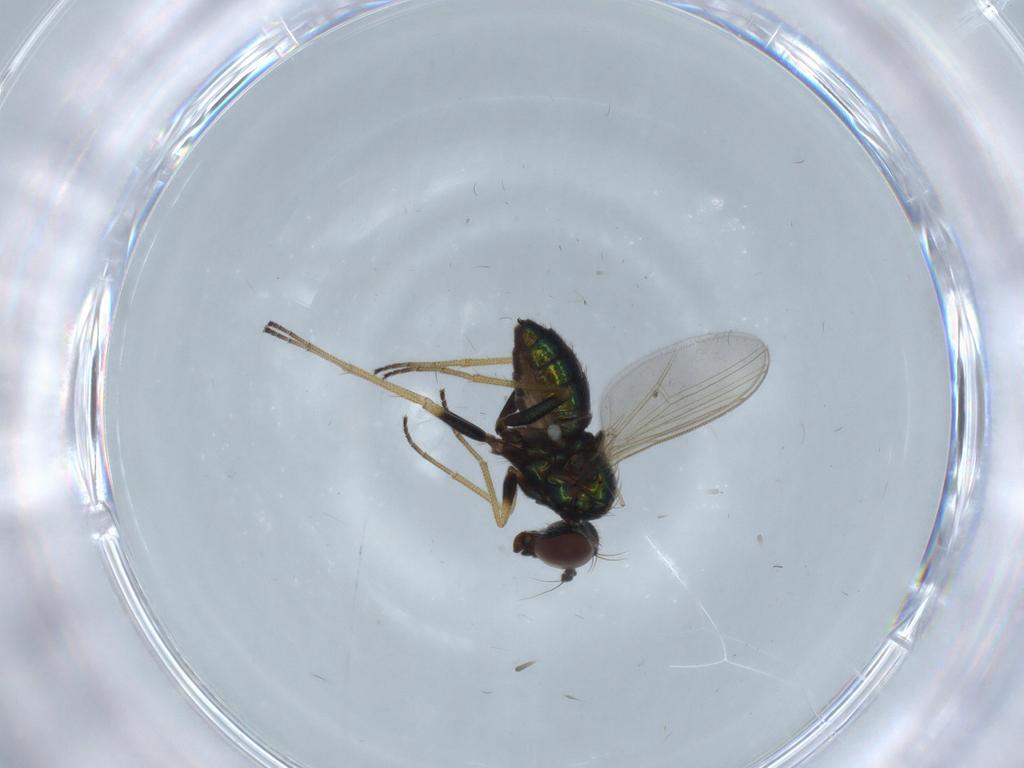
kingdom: Animalia
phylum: Arthropoda
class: Insecta
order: Diptera
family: Dolichopodidae
